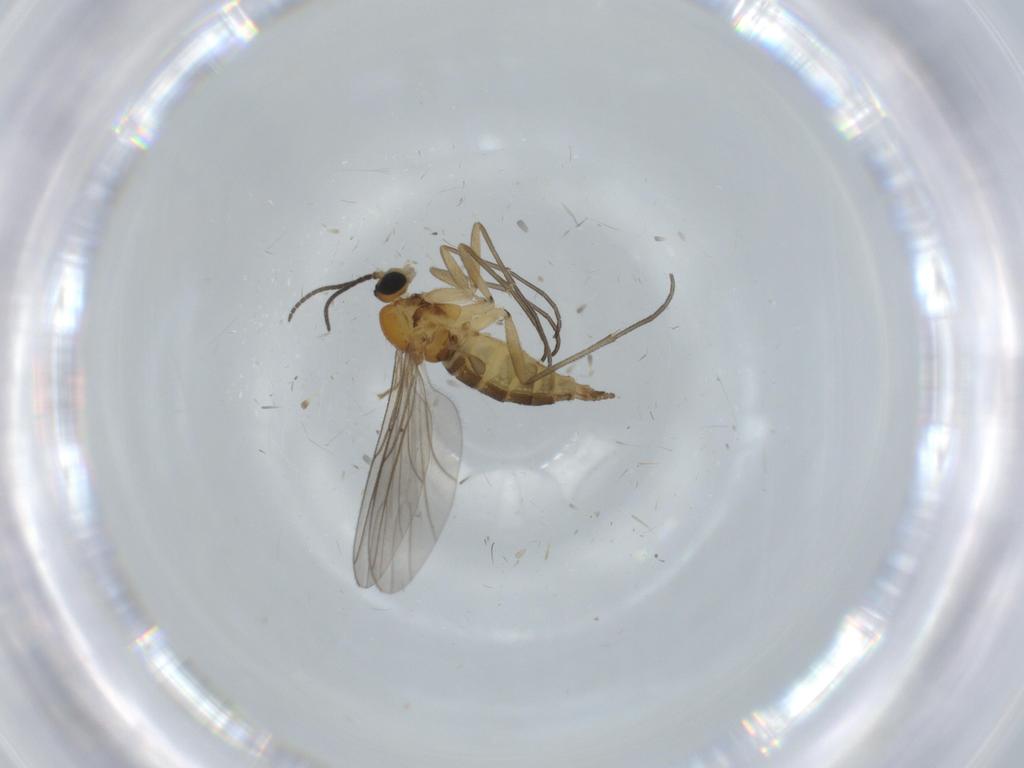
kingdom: Animalia
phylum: Arthropoda
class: Insecta
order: Diptera
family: Sciaridae
